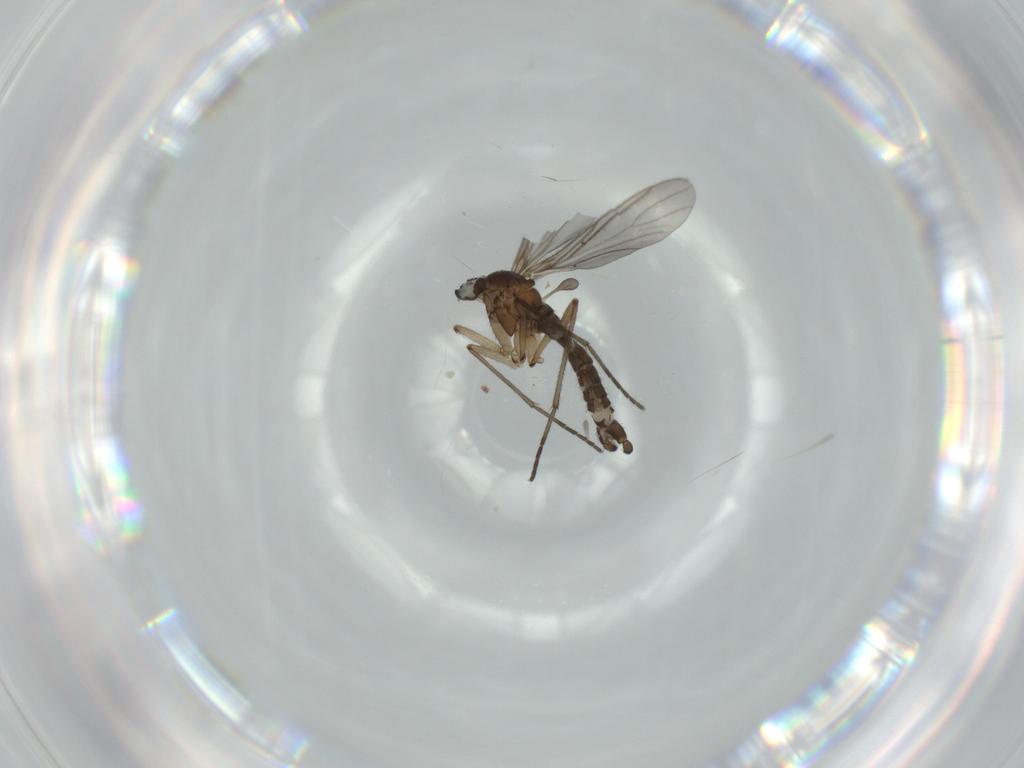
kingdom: Animalia
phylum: Arthropoda
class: Insecta
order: Diptera
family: Sciaridae
